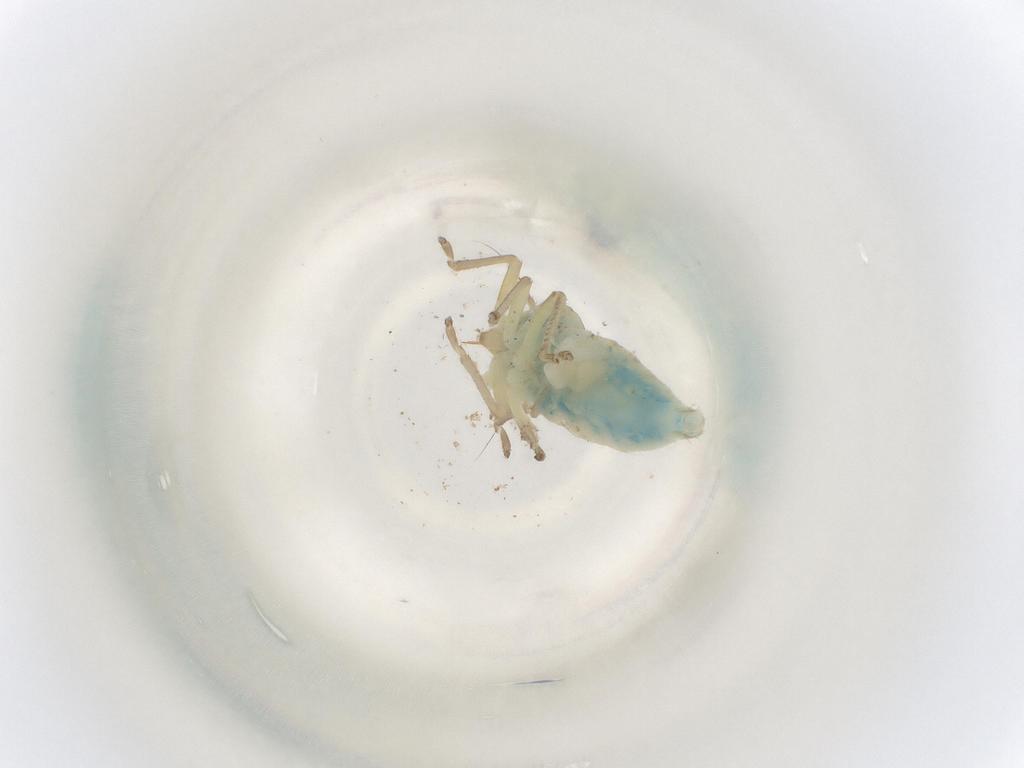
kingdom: Animalia
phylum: Arthropoda
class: Insecta
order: Hemiptera
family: Cicadellidae
